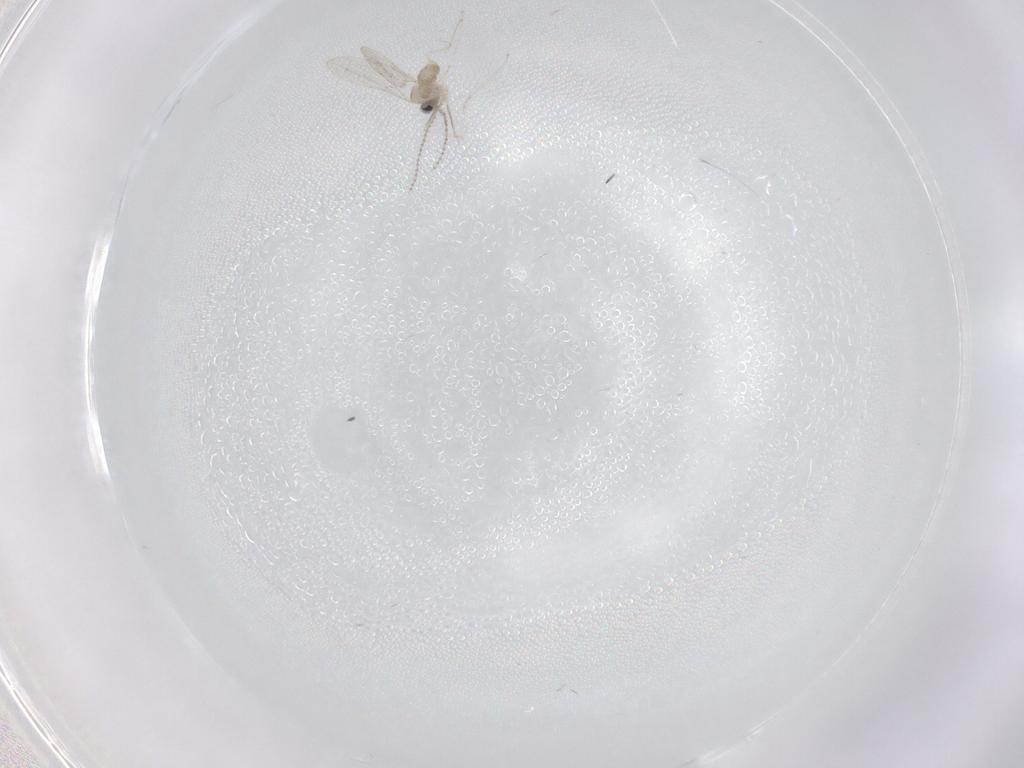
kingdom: Animalia
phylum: Arthropoda
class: Insecta
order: Diptera
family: Cecidomyiidae
